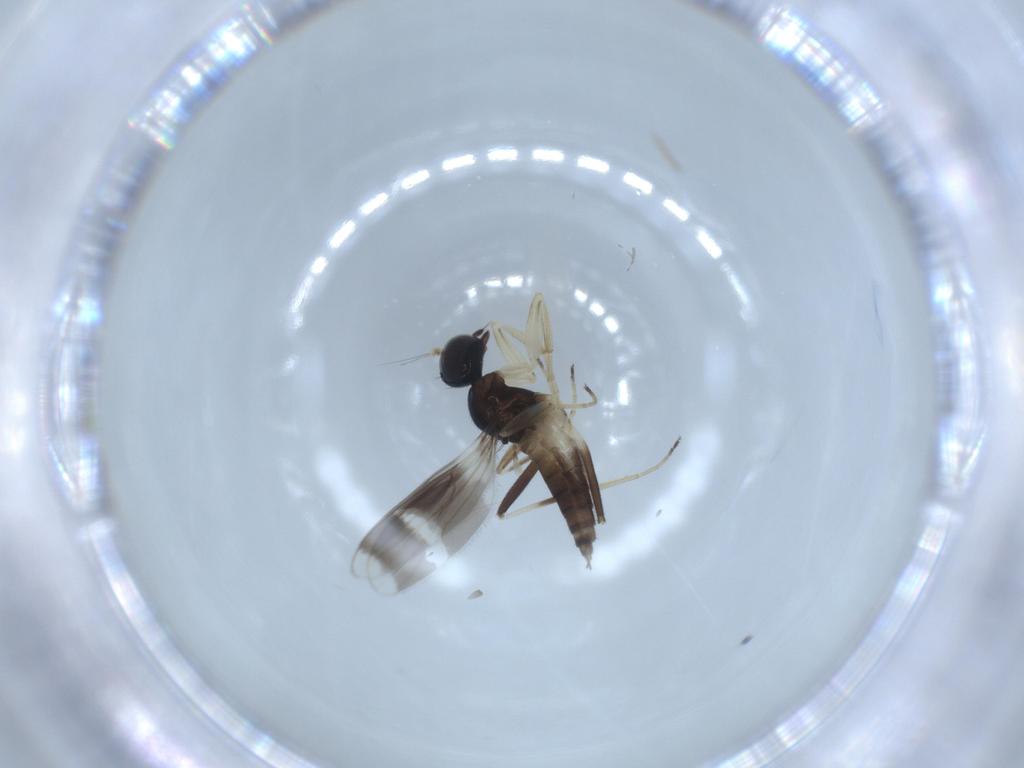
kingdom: Animalia
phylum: Arthropoda
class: Insecta
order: Diptera
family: Hybotidae
